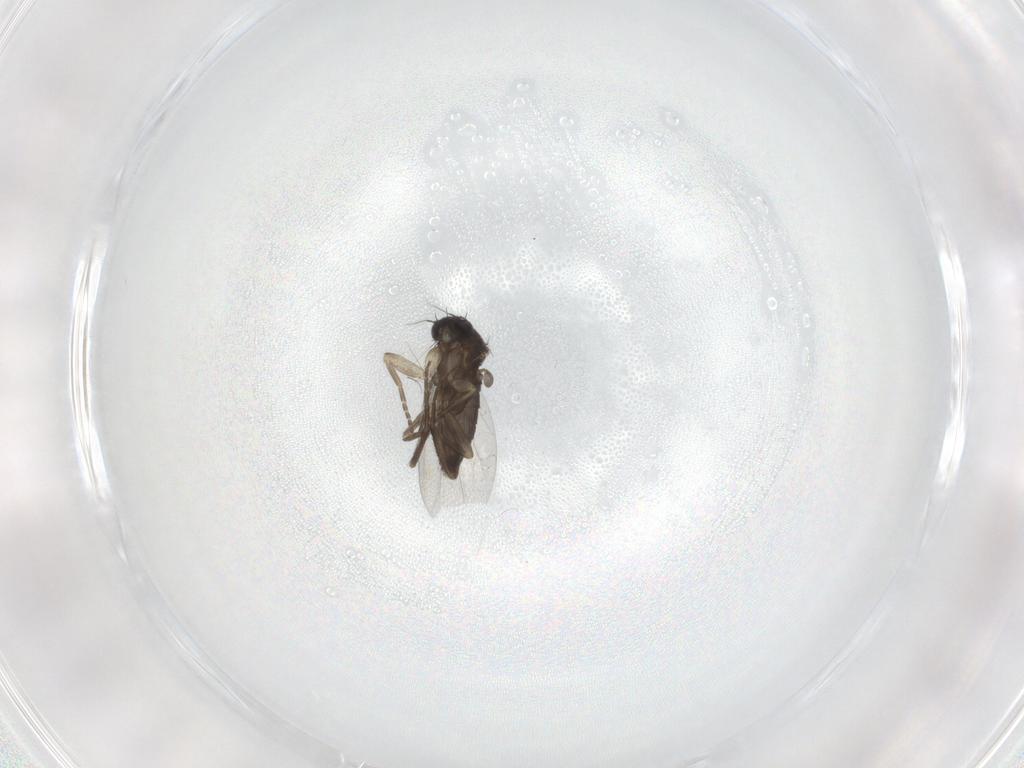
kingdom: Animalia
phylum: Arthropoda
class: Insecta
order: Diptera
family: Phoridae
